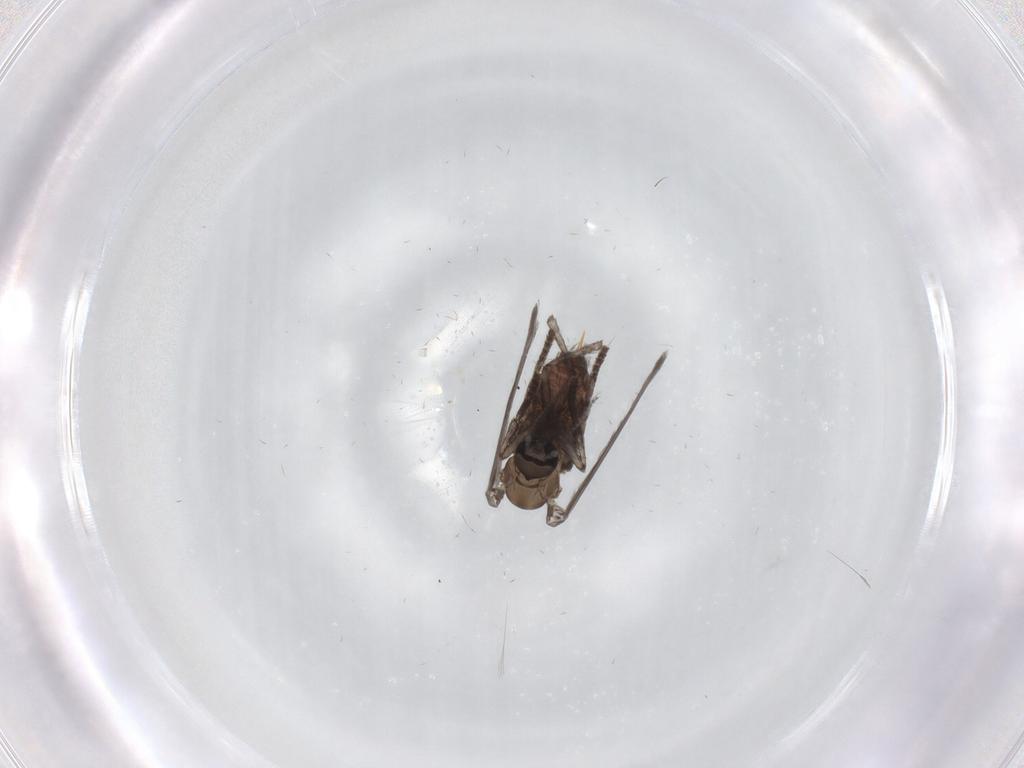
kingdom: Animalia
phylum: Arthropoda
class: Insecta
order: Diptera
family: Psychodidae
